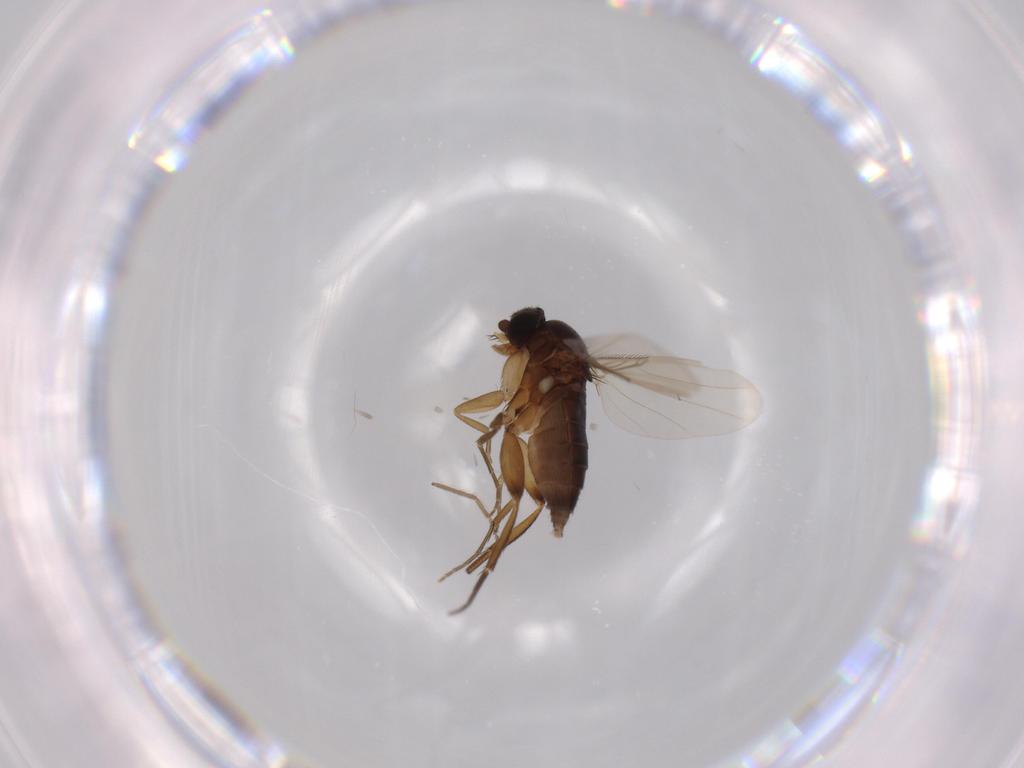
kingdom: Animalia
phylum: Arthropoda
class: Insecta
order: Diptera
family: Phoridae
